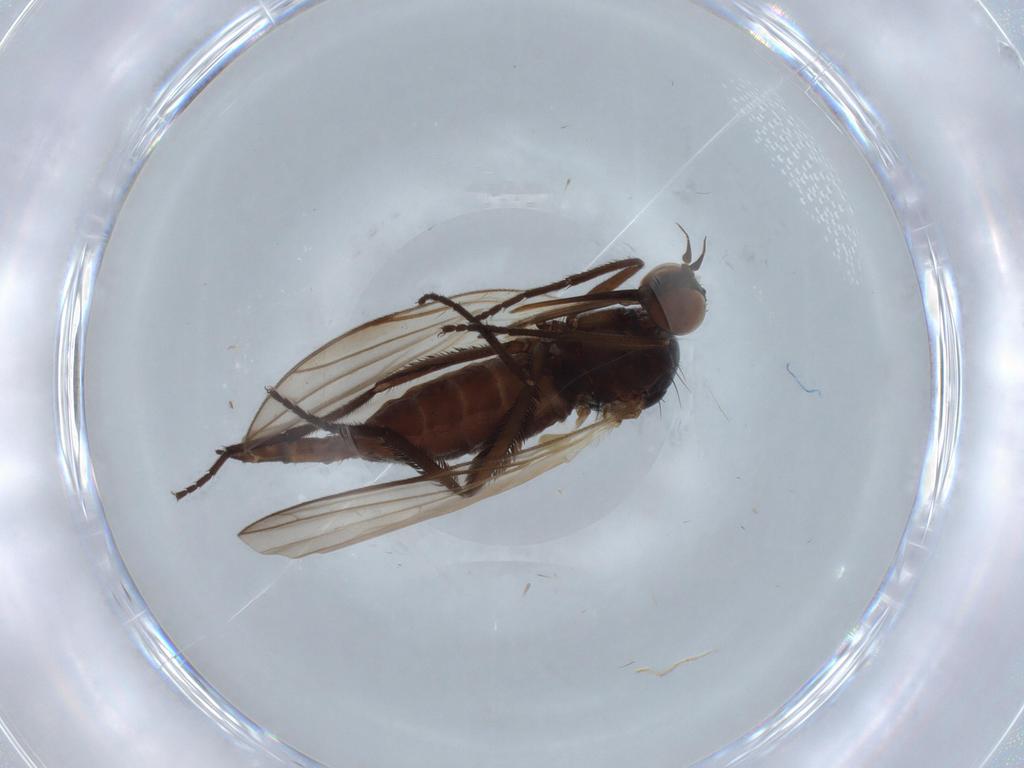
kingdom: Animalia
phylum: Arthropoda
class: Insecta
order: Diptera
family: Empididae
